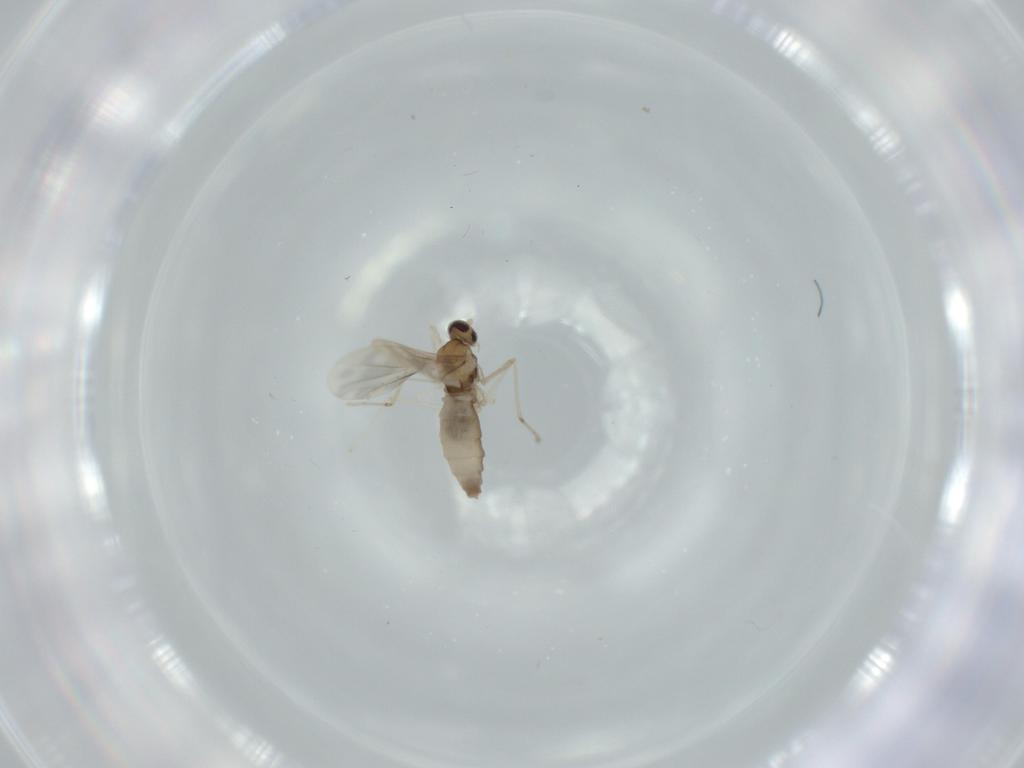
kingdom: Animalia
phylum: Arthropoda
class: Insecta
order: Diptera
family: Cecidomyiidae
